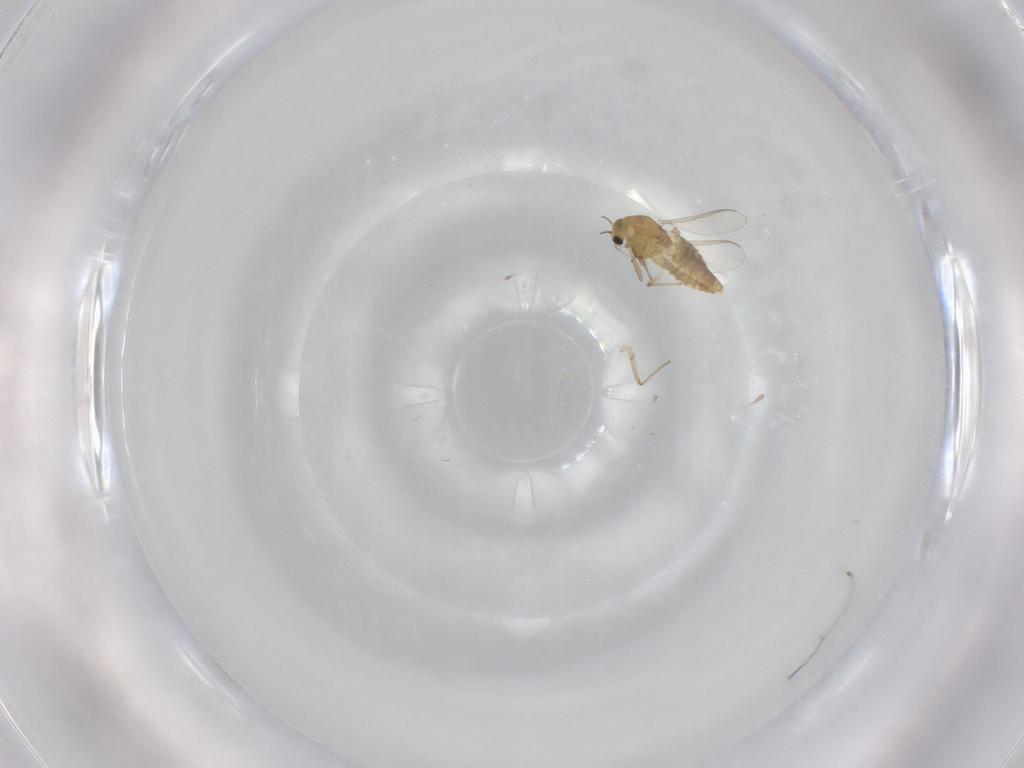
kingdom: Animalia
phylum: Arthropoda
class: Insecta
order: Diptera
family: Chironomidae
